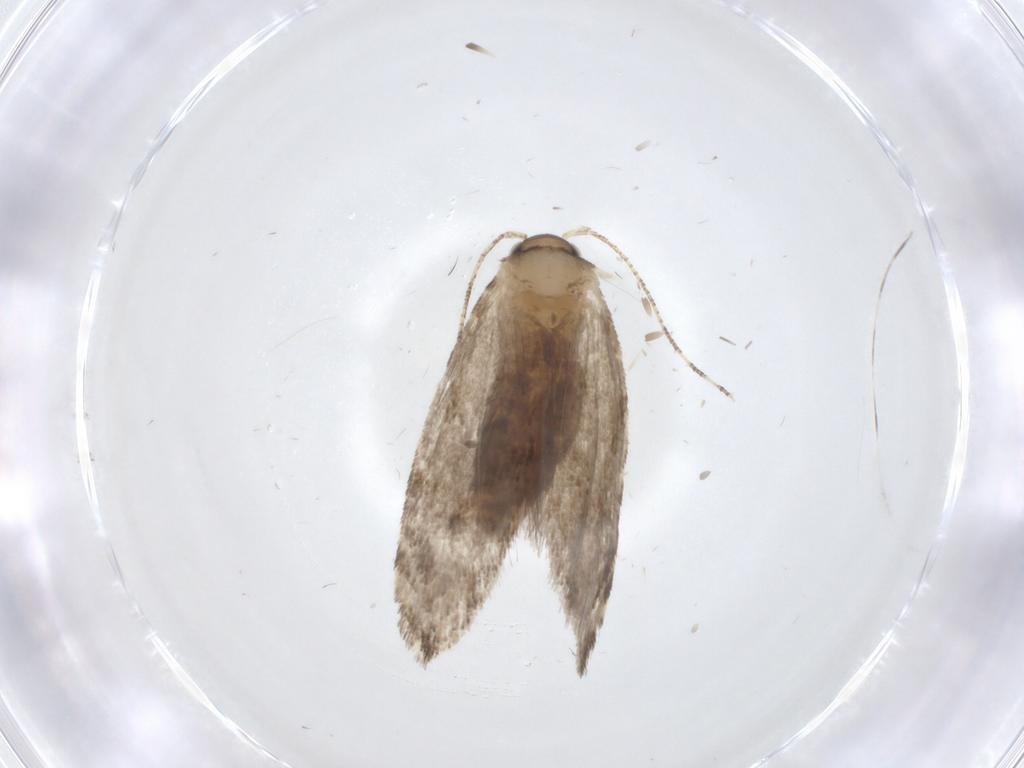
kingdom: Animalia
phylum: Arthropoda
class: Insecta
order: Lepidoptera
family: Tineidae
